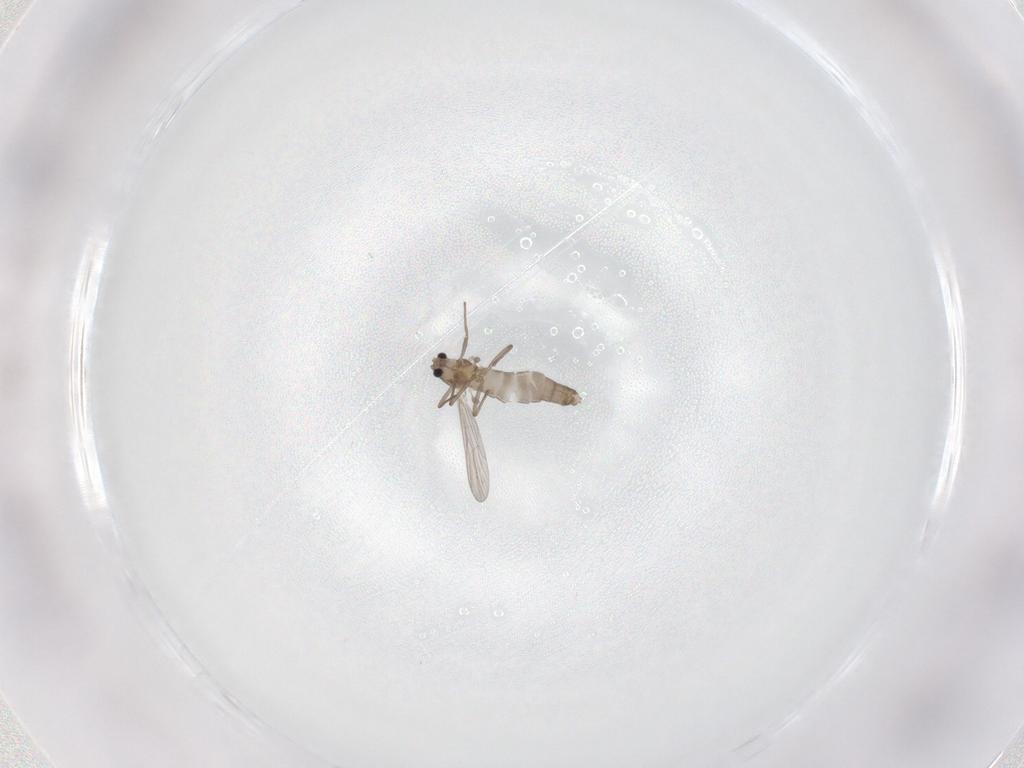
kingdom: Animalia
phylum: Arthropoda
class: Insecta
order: Diptera
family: Chironomidae
